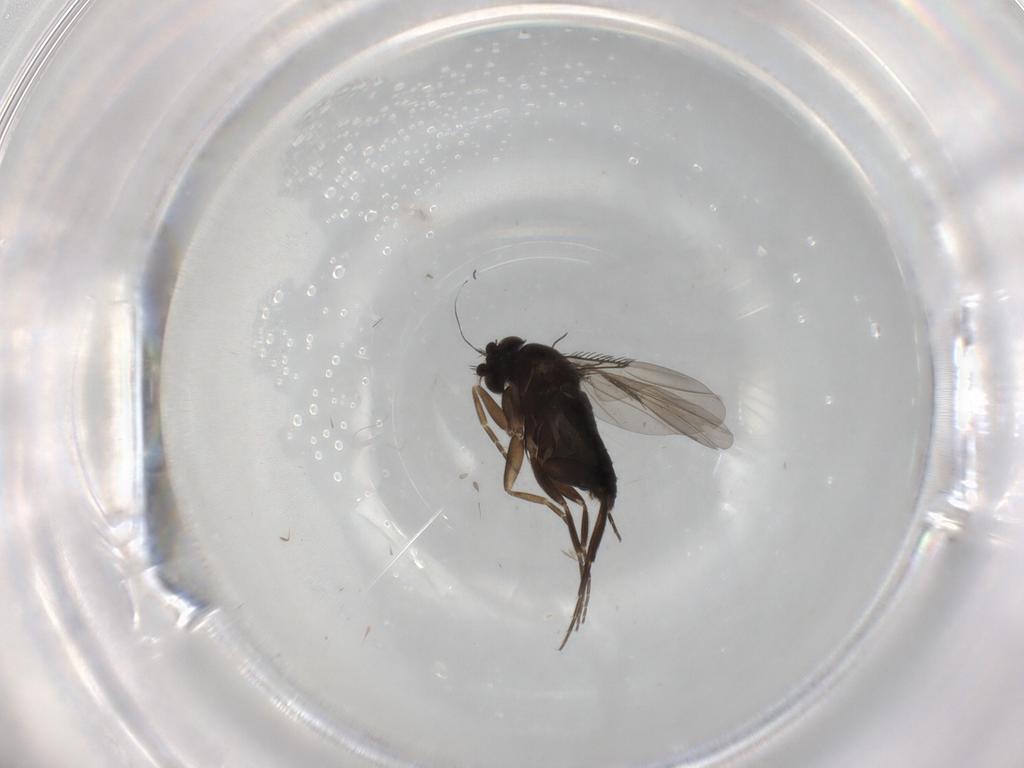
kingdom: Animalia
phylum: Arthropoda
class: Insecta
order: Diptera
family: Phoridae
